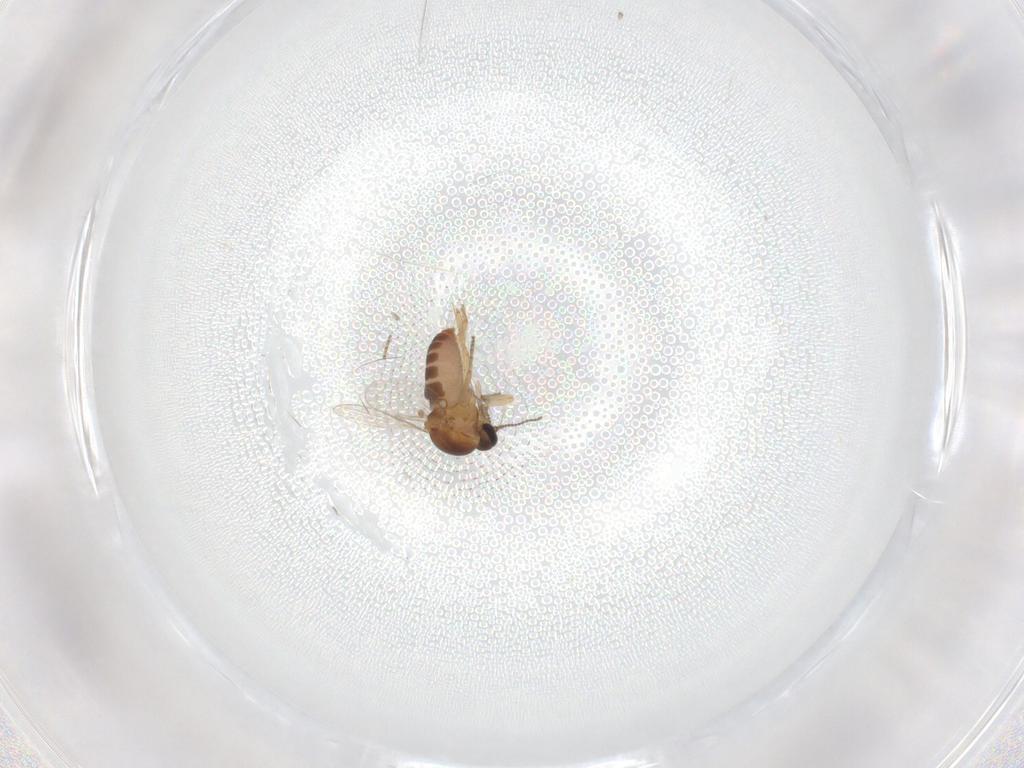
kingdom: Animalia
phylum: Arthropoda
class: Insecta
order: Diptera
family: Ceratopogonidae
